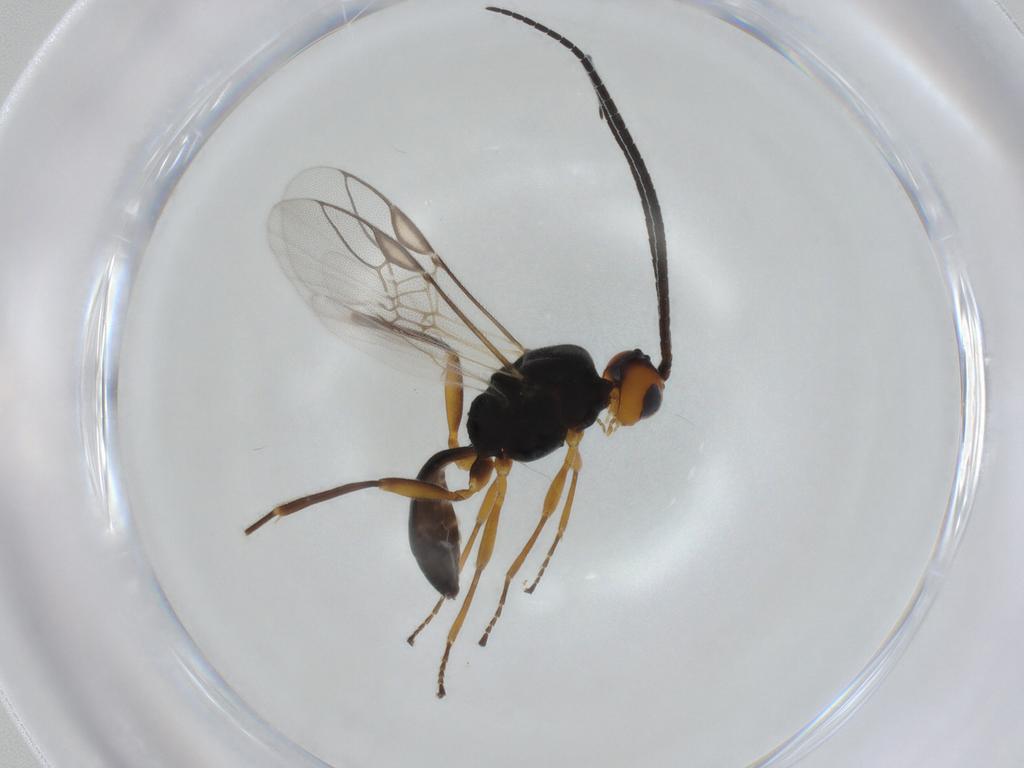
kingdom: Animalia
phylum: Arthropoda
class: Insecta
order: Hymenoptera
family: Braconidae
